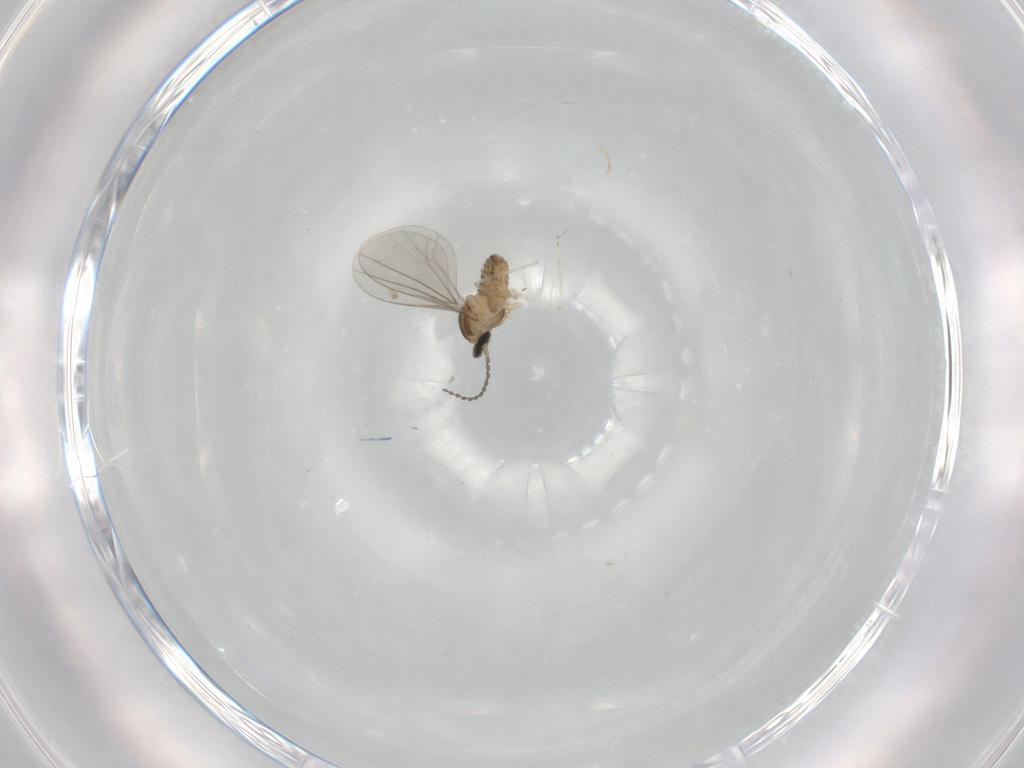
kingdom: Animalia
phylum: Arthropoda
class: Insecta
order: Diptera
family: Cecidomyiidae
